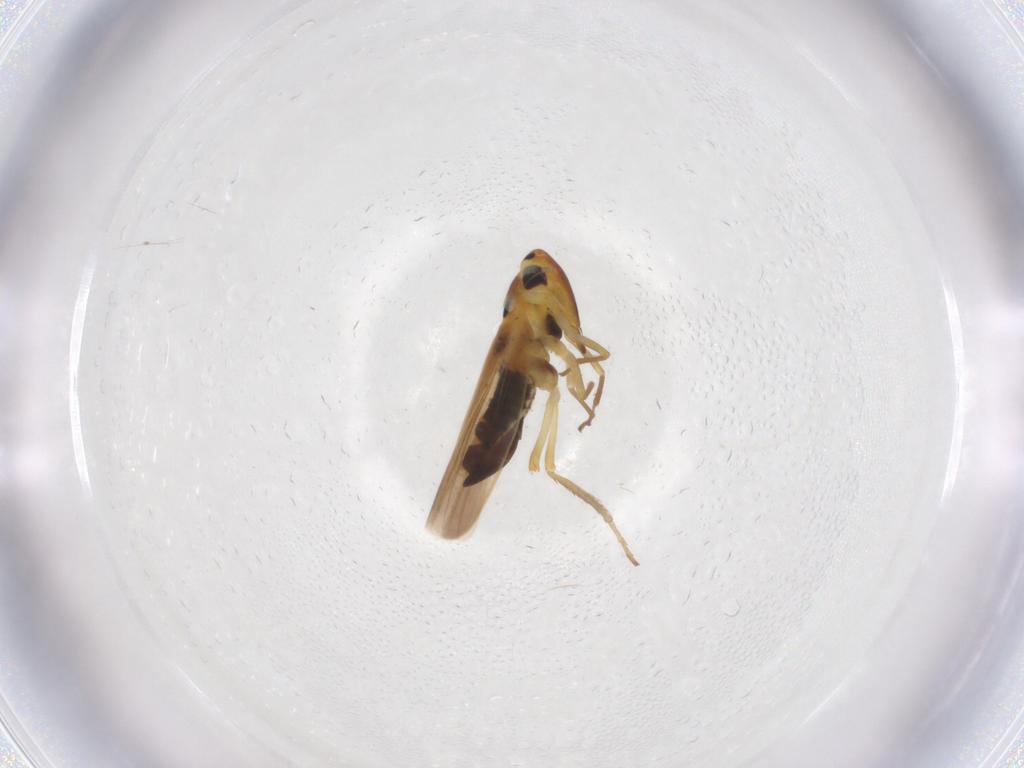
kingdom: Animalia
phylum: Arthropoda
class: Insecta
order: Hemiptera
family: Cicadellidae
